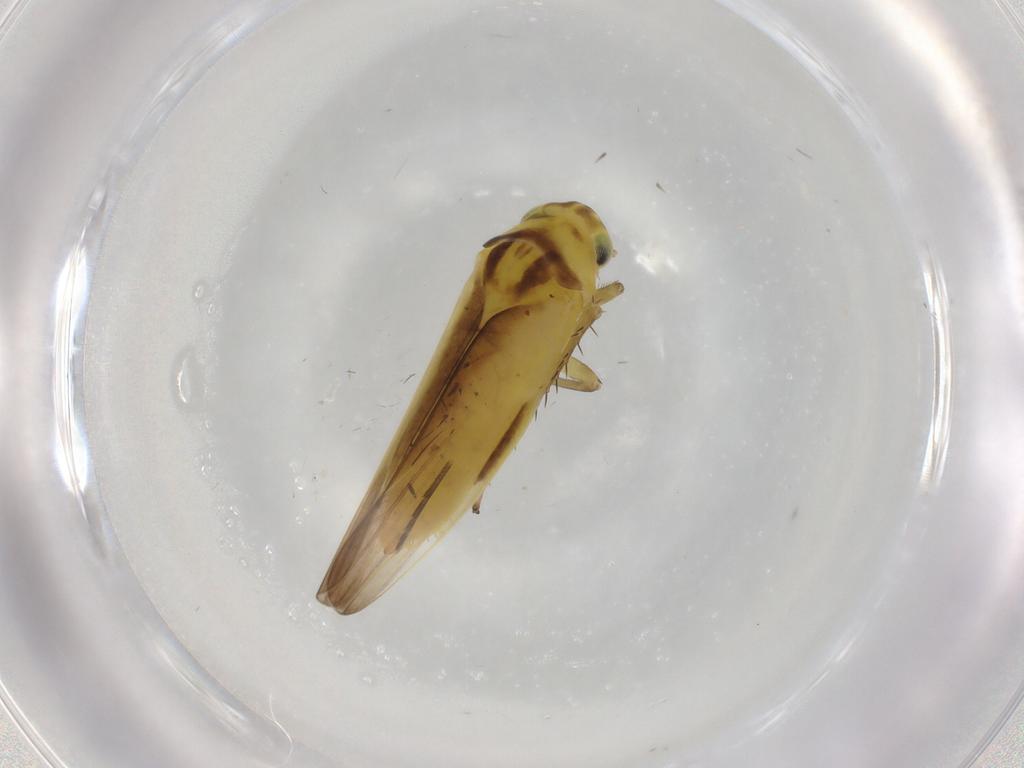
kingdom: Animalia
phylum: Arthropoda
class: Insecta
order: Hemiptera
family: Cicadellidae
